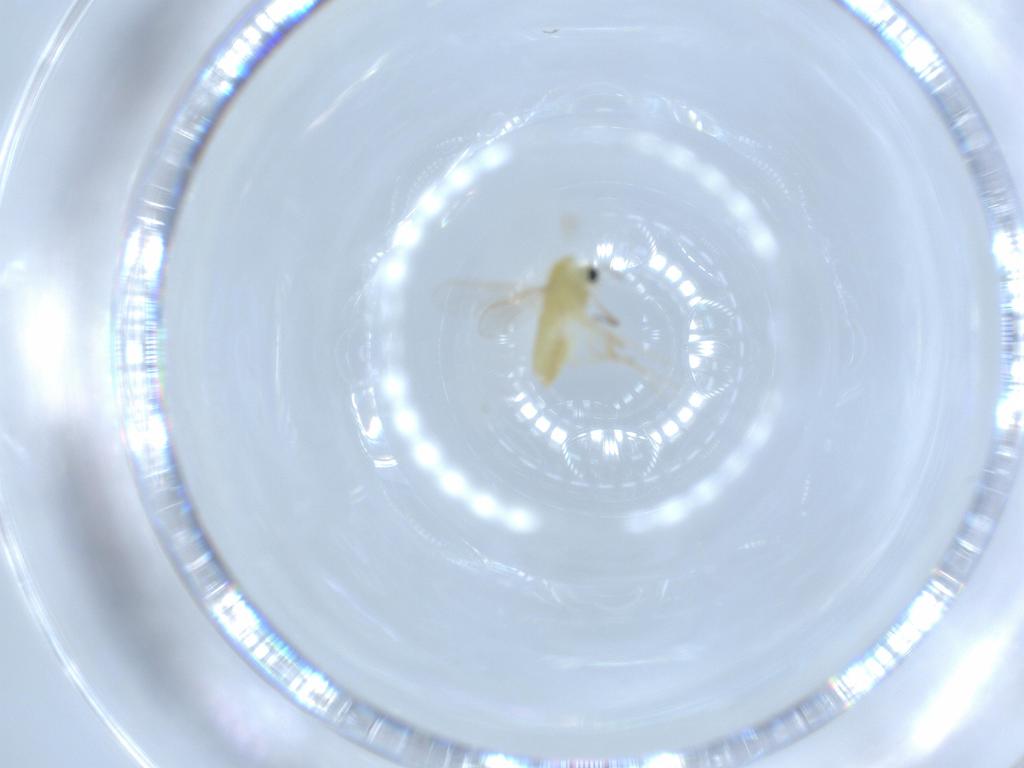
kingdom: Animalia
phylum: Arthropoda
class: Insecta
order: Diptera
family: Chironomidae
